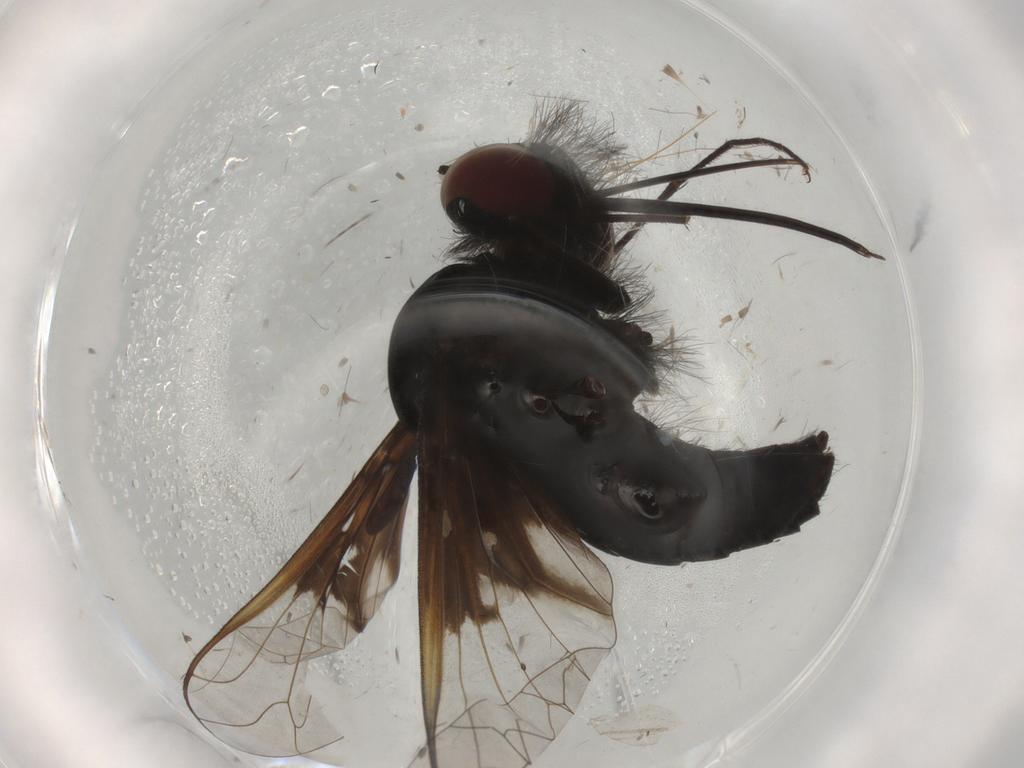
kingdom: Animalia
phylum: Arthropoda
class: Insecta
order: Diptera
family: Bombyliidae
